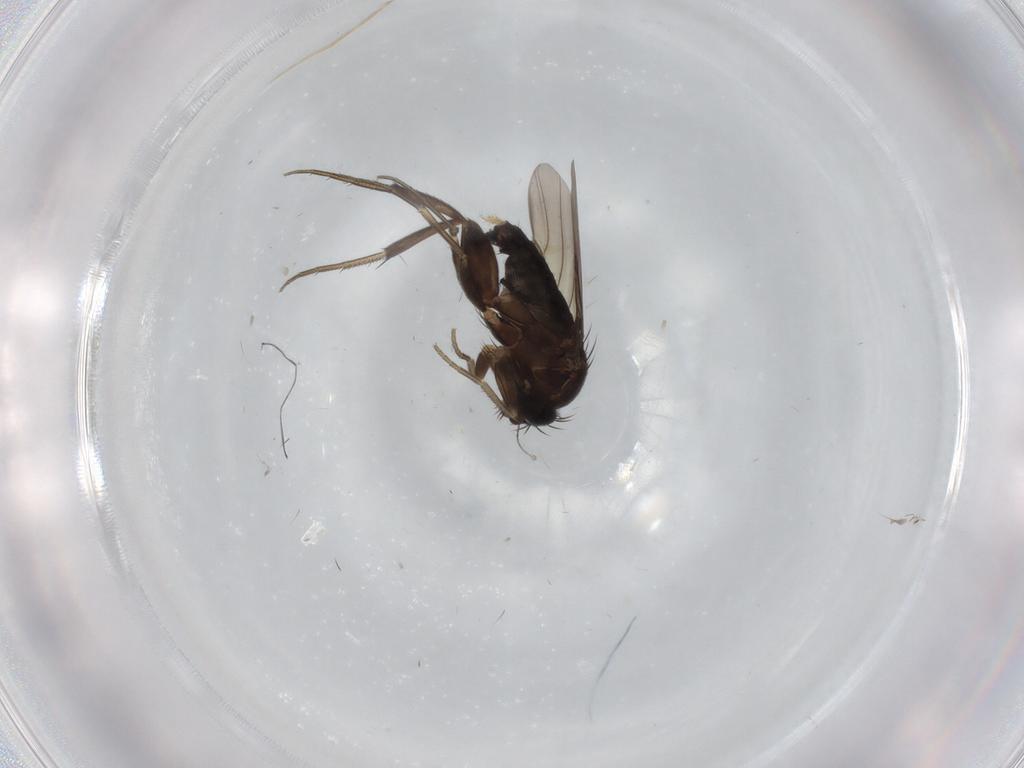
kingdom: Animalia
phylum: Arthropoda
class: Insecta
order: Diptera
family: Phoridae
